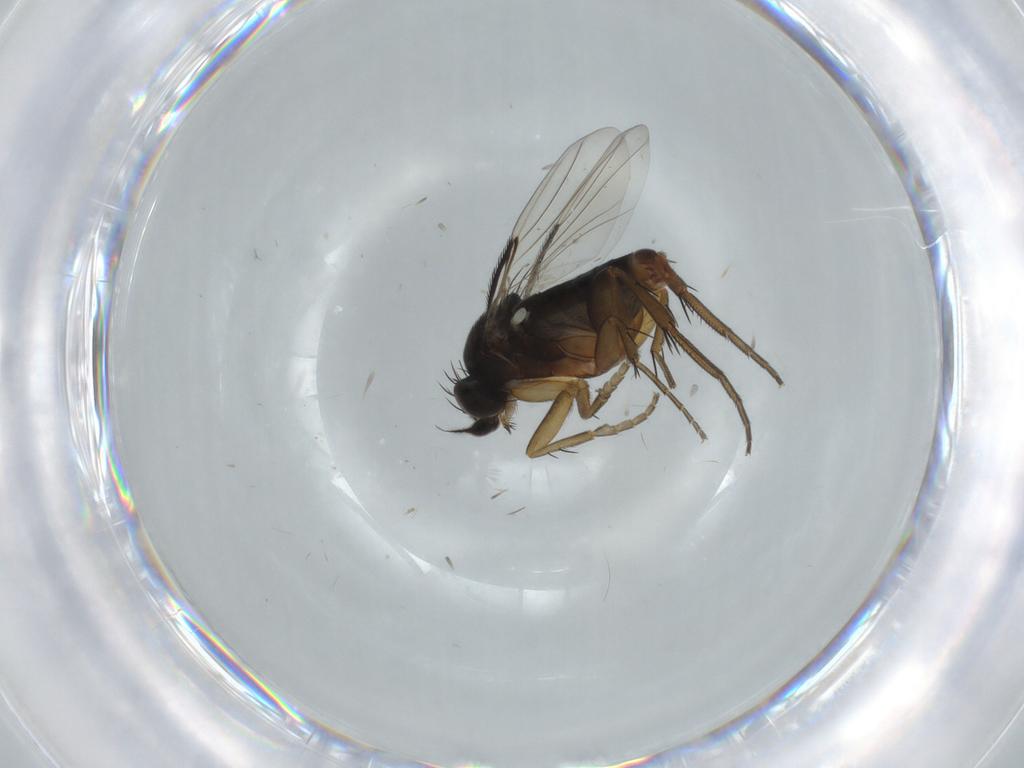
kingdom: Animalia
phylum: Arthropoda
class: Insecta
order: Diptera
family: Phoridae
